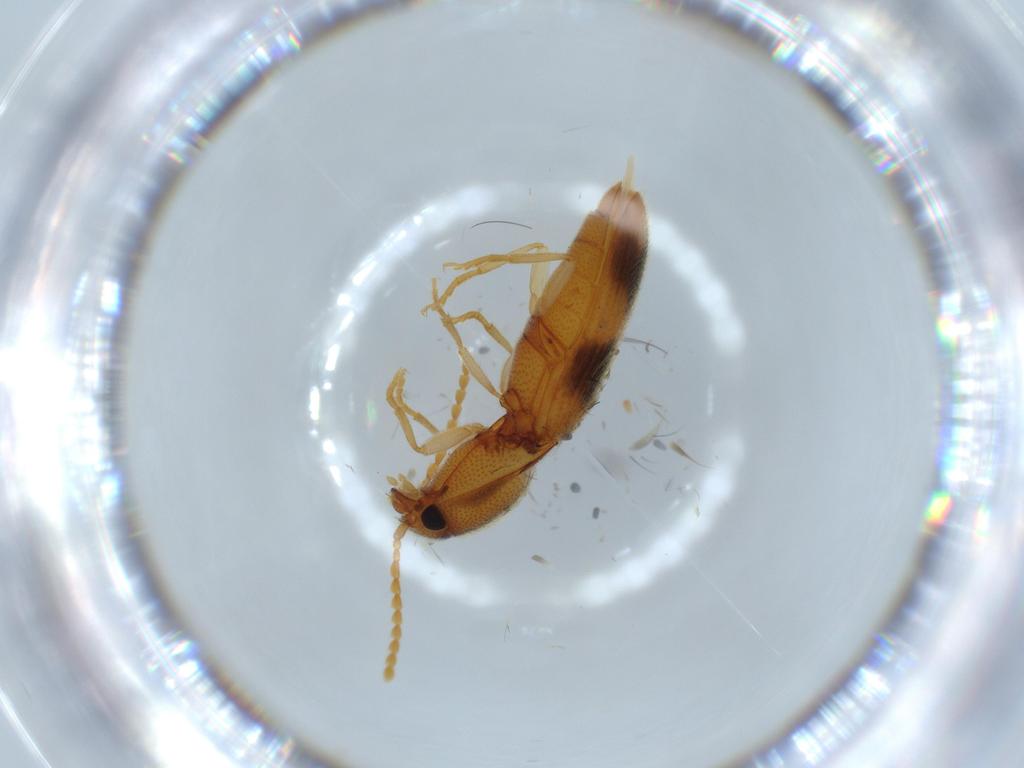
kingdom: Animalia
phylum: Arthropoda
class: Insecta
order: Coleoptera
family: Elateridae
